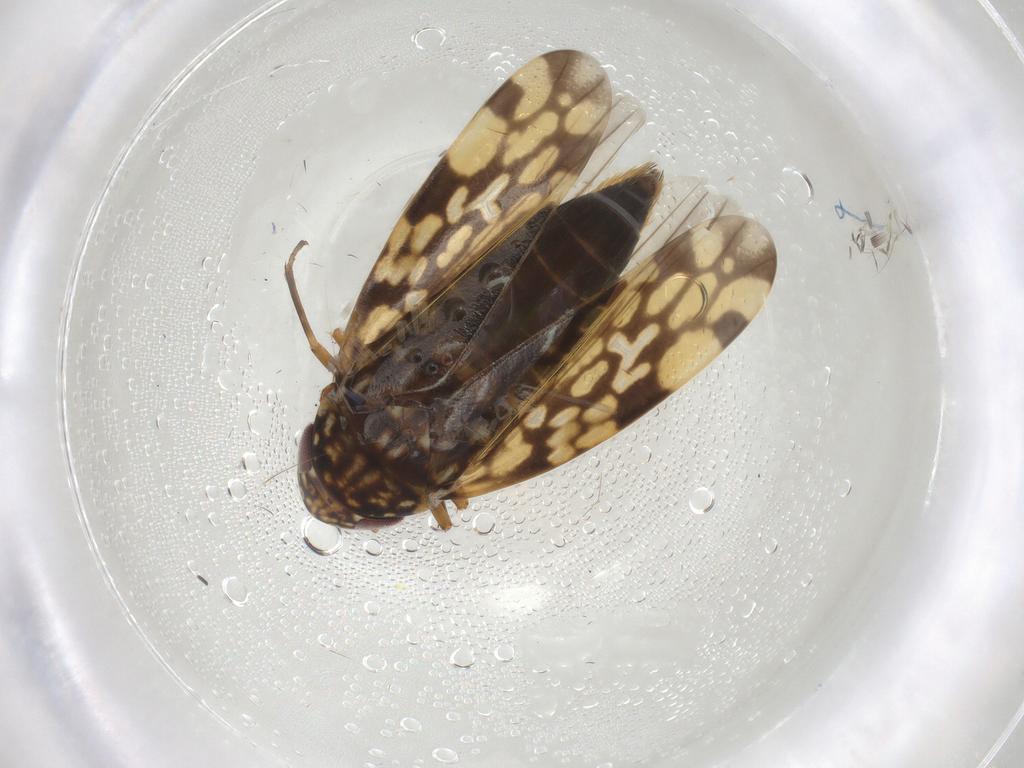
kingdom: Animalia
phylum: Arthropoda
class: Insecta
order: Hemiptera
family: Cicadellidae
